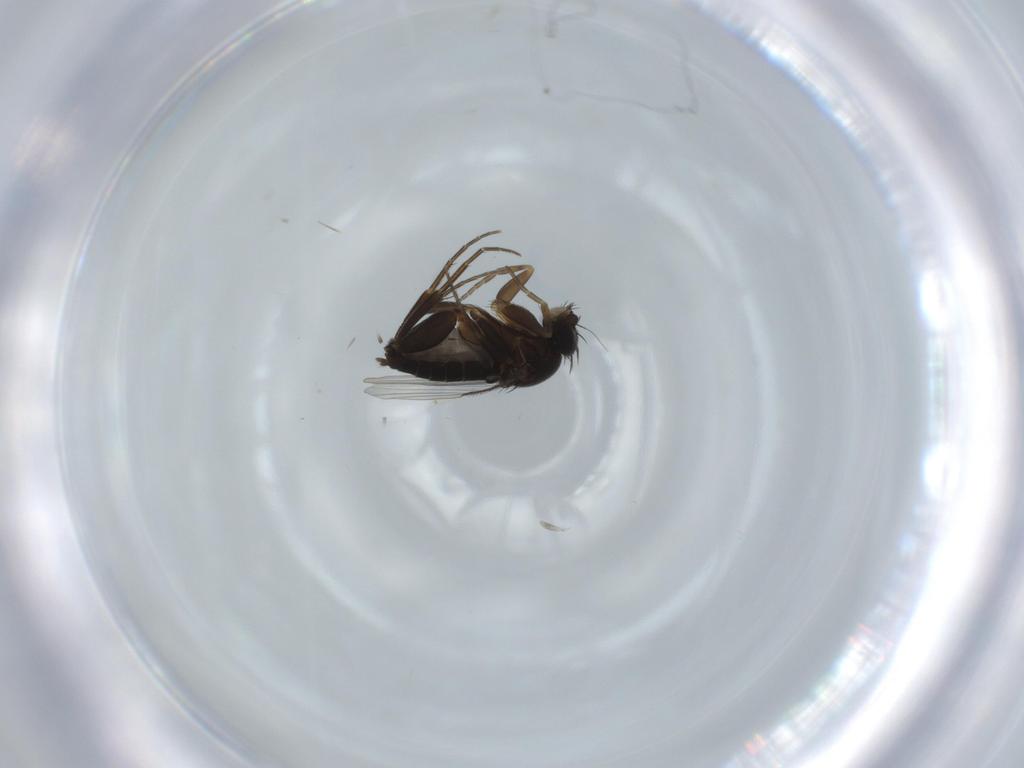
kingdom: Animalia
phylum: Arthropoda
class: Insecta
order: Diptera
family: Phoridae
